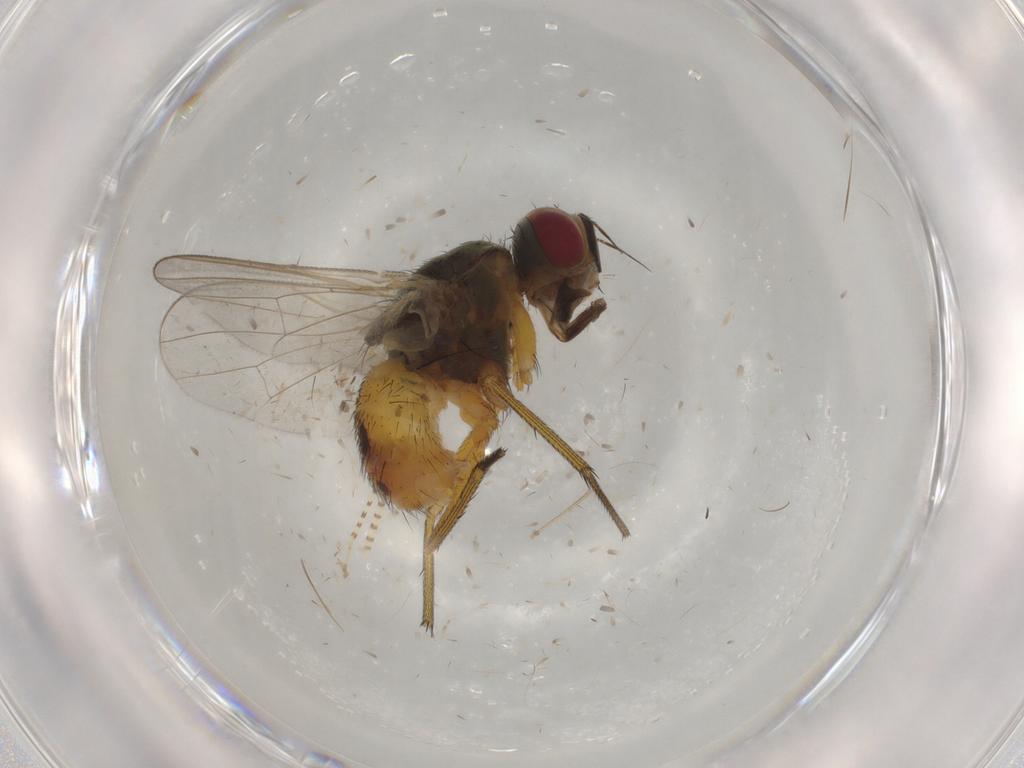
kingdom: Animalia
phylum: Arthropoda
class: Insecta
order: Diptera
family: Muscidae
